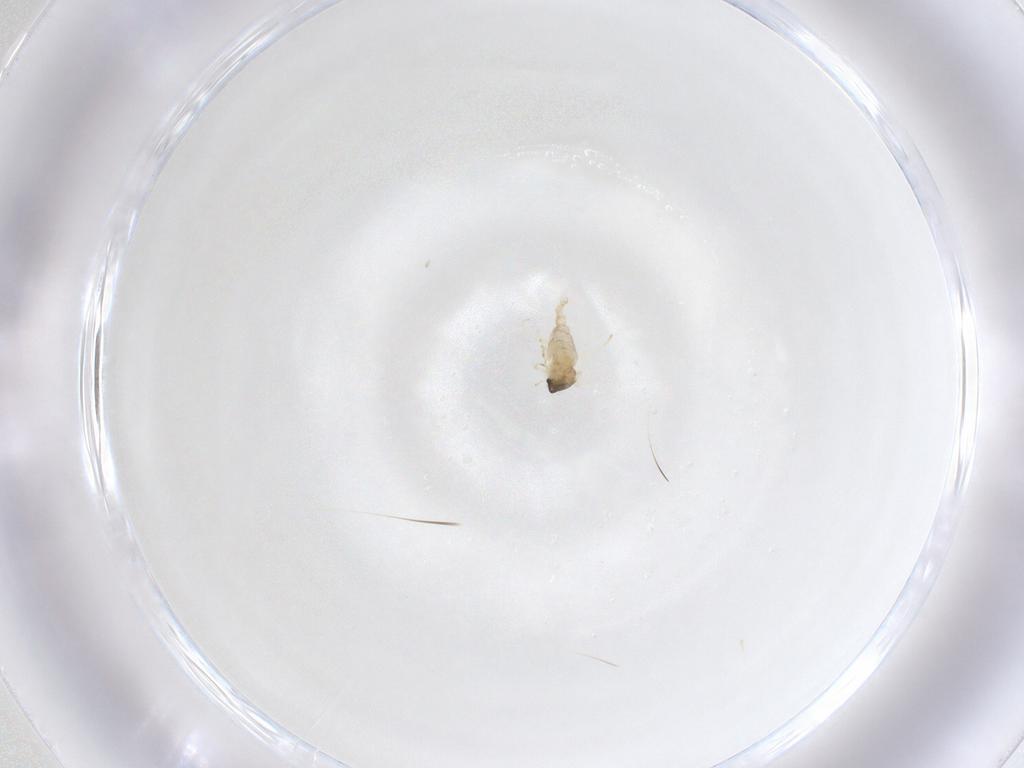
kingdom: Animalia
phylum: Arthropoda
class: Insecta
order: Diptera
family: Cecidomyiidae
